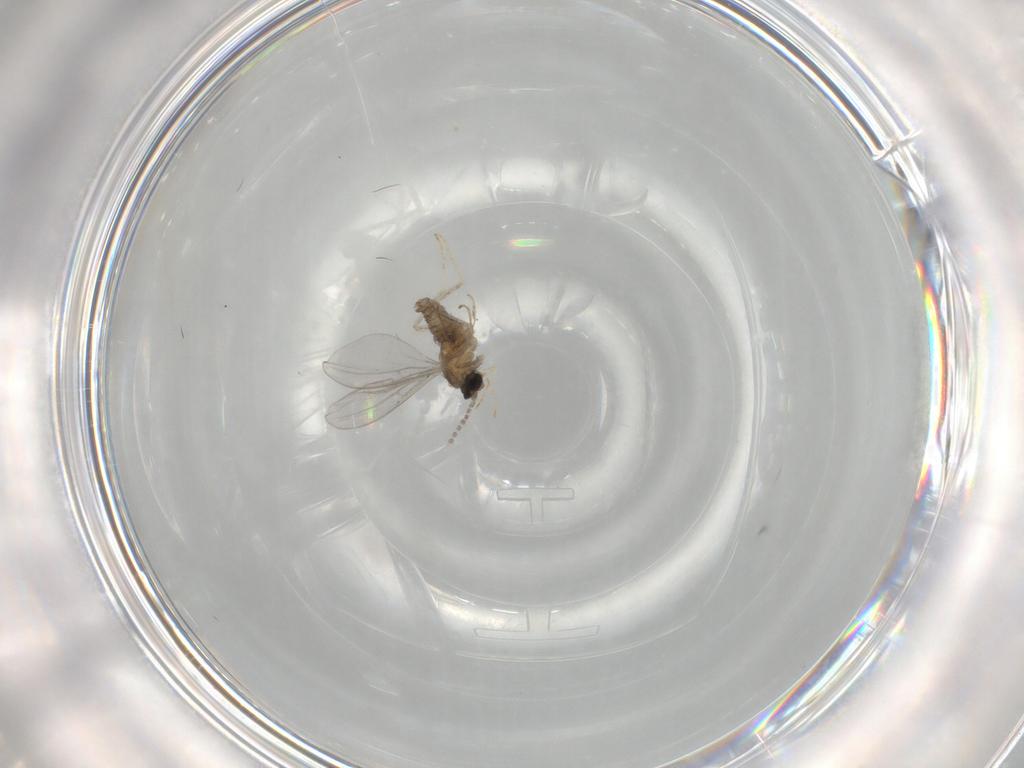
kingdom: Animalia
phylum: Arthropoda
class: Insecta
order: Diptera
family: Cecidomyiidae
